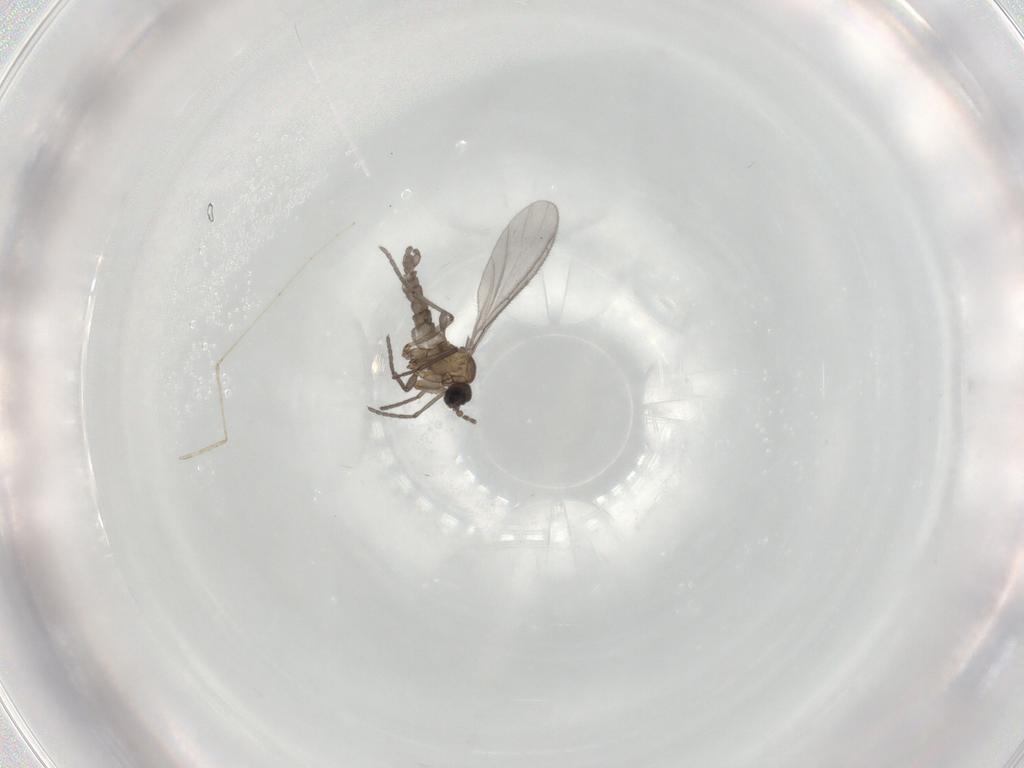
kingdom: Animalia
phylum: Arthropoda
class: Insecta
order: Diptera
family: Sciaridae
